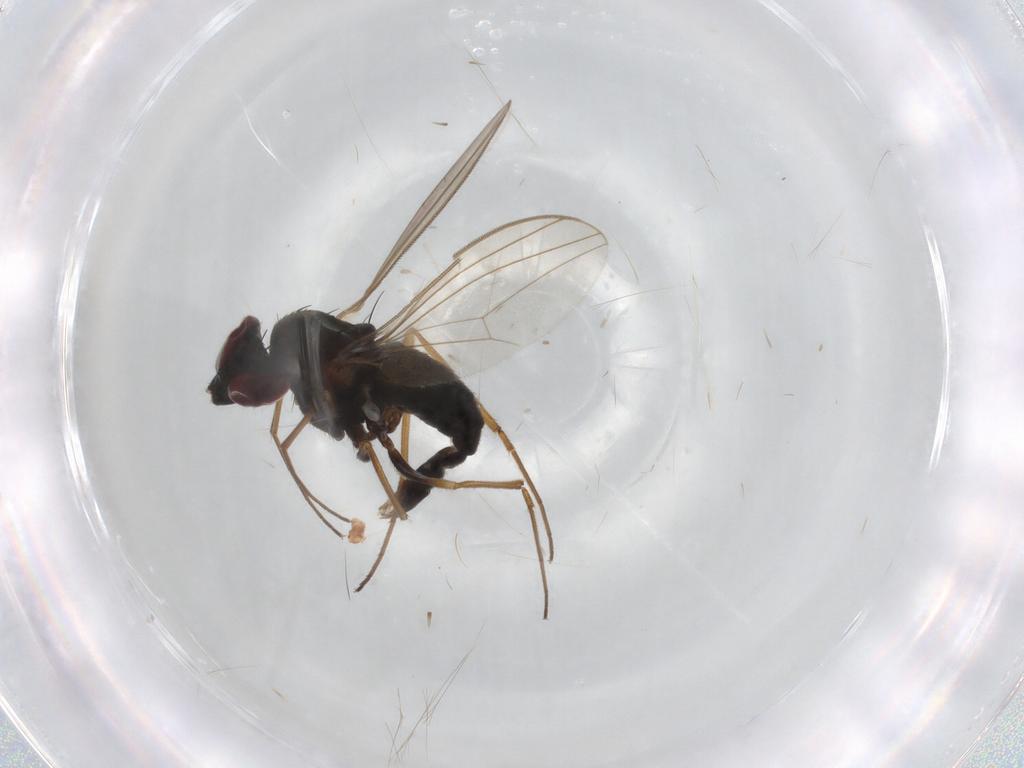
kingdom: Animalia
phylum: Arthropoda
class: Insecta
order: Diptera
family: Dolichopodidae
